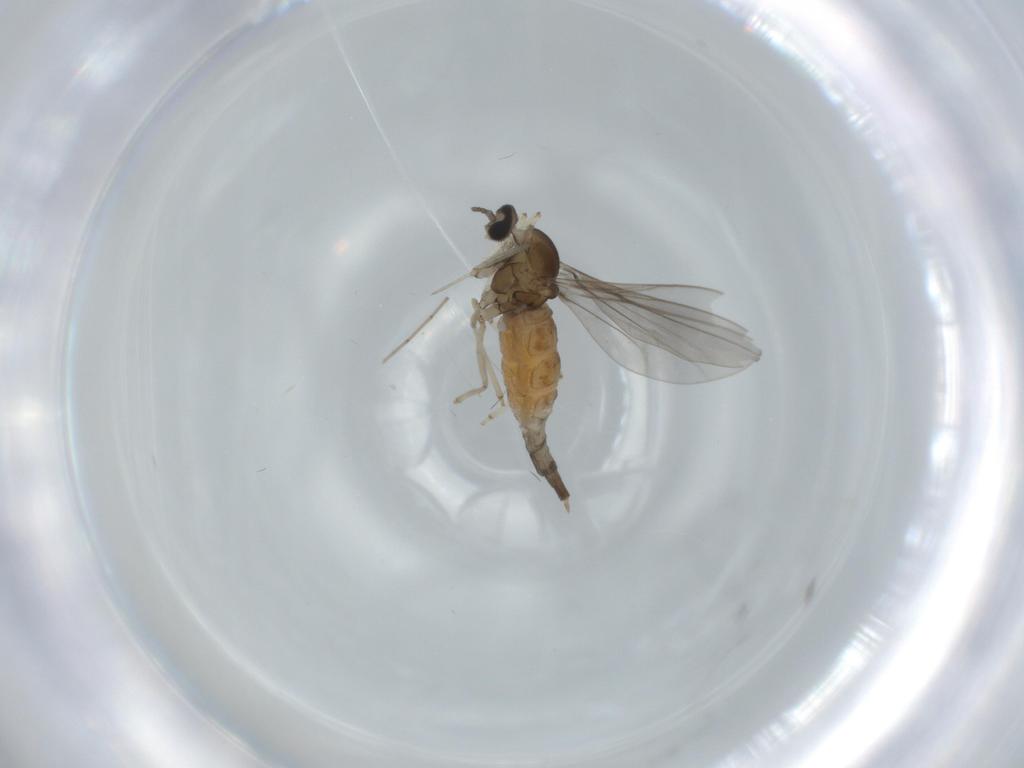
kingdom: Animalia
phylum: Arthropoda
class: Insecta
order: Diptera
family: Cecidomyiidae
